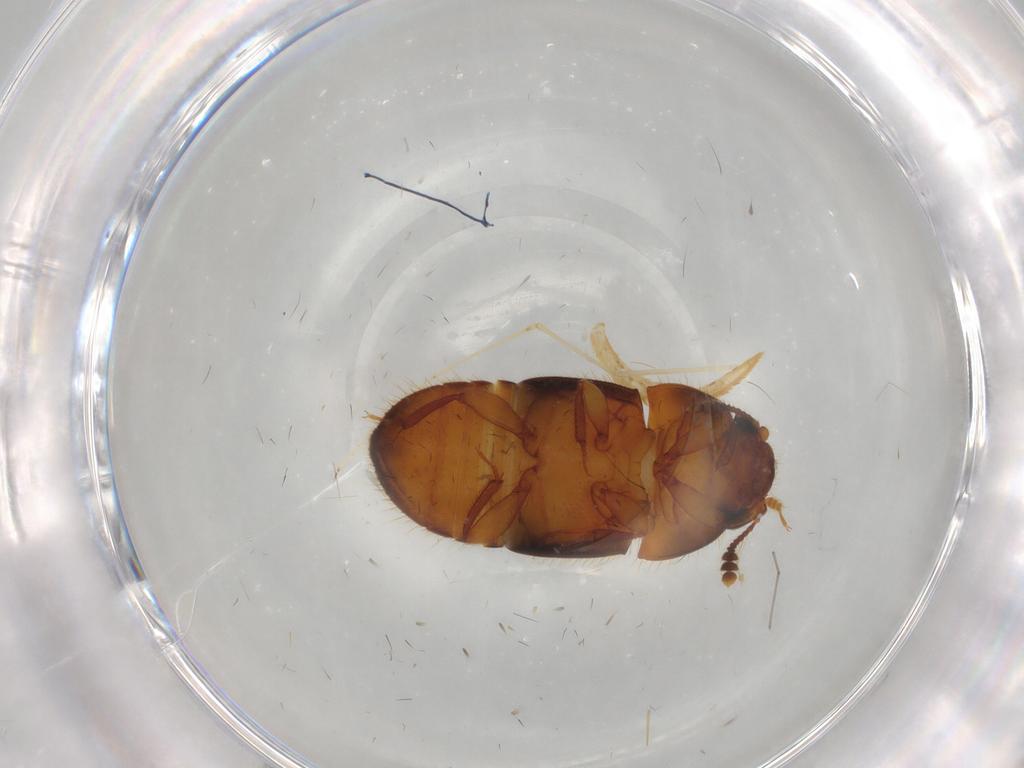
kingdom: Animalia
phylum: Arthropoda
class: Insecta
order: Coleoptera
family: Nitidulidae
